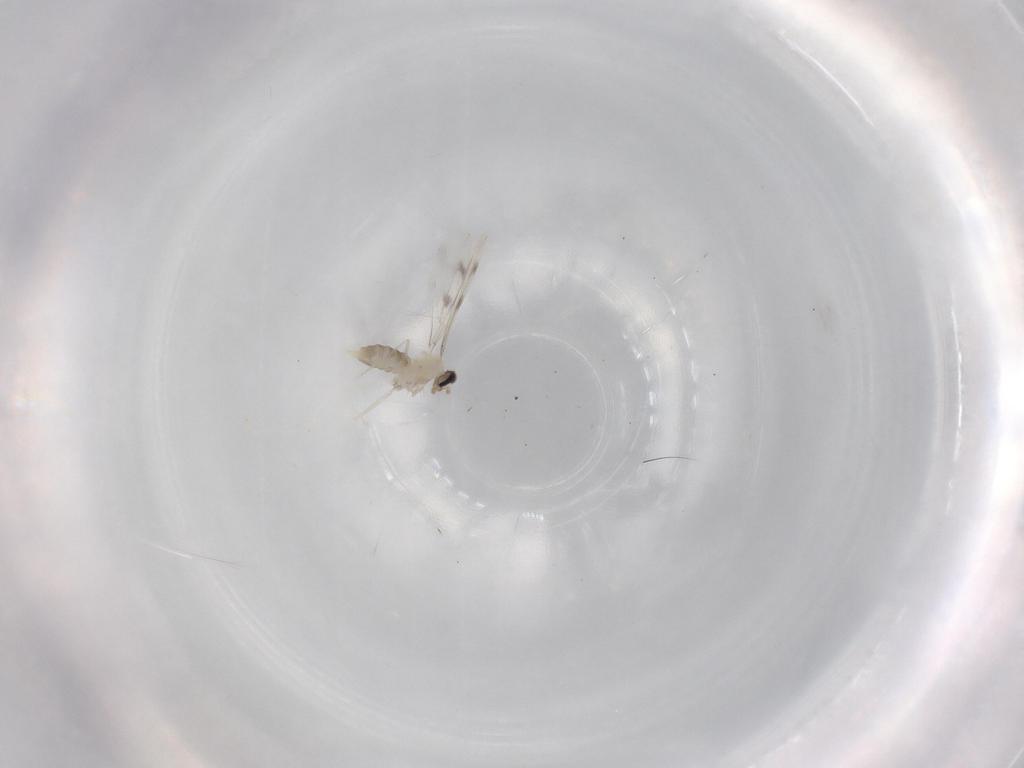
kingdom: Animalia
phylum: Arthropoda
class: Insecta
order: Diptera
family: Cecidomyiidae
